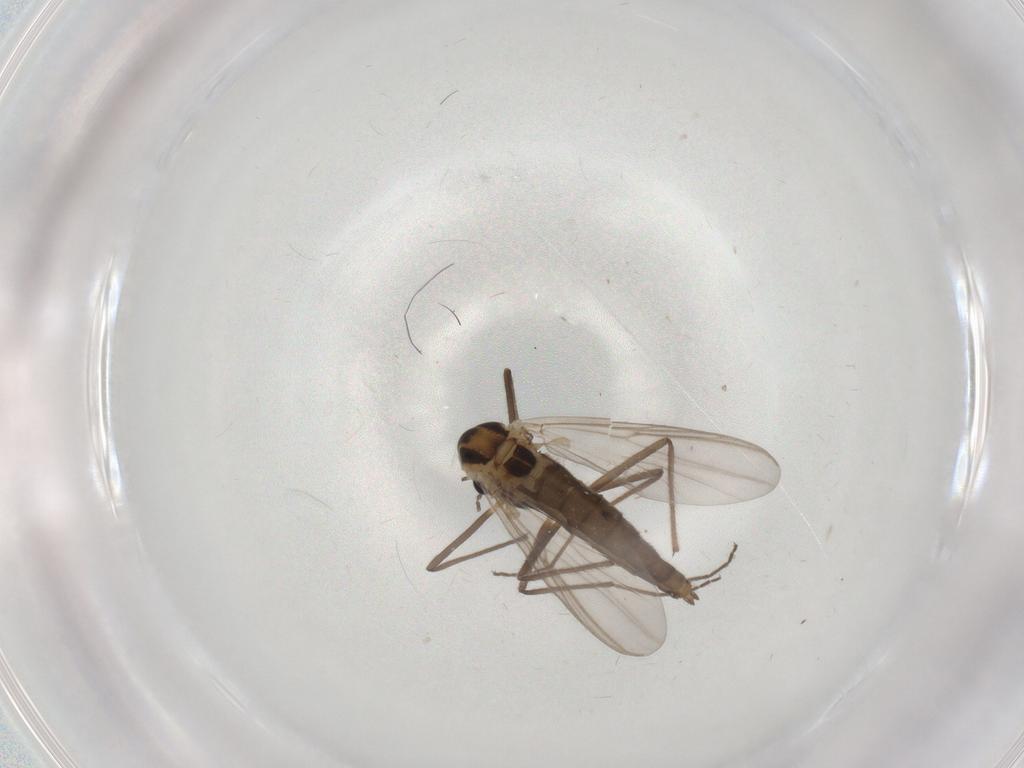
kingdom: Animalia
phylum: Arthropoda
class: Insecta
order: Diptera
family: Chironomidae
